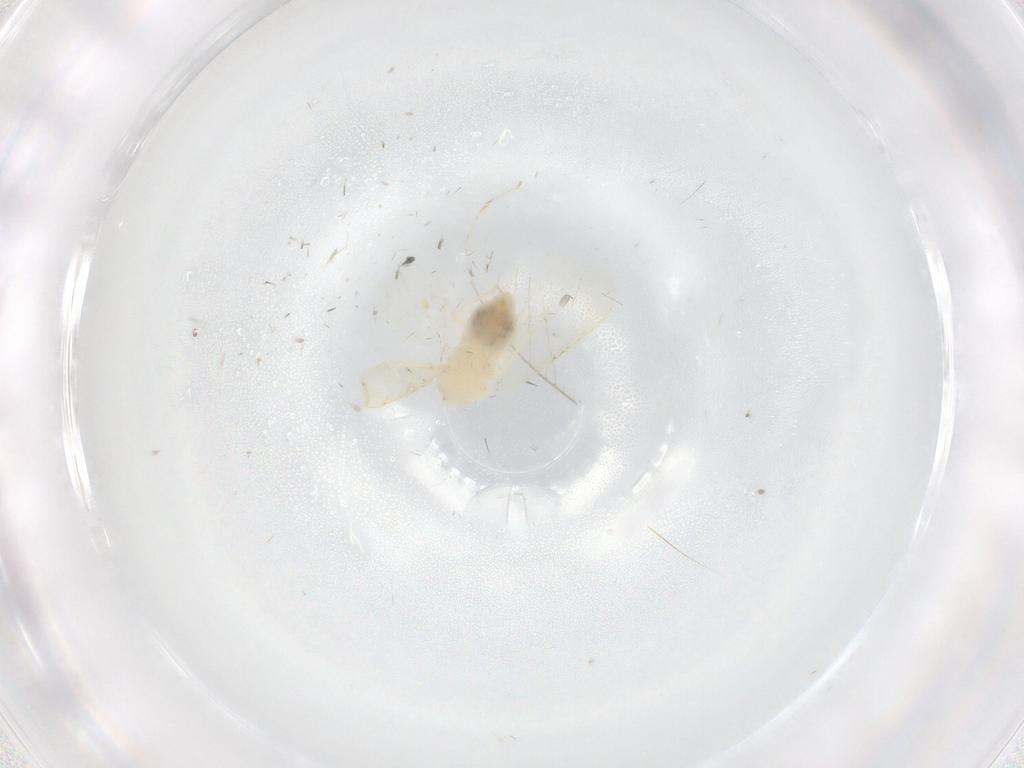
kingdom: Animalia
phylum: Arthropoda
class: Insecta
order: Hemiptera
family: Aleyrodidae
